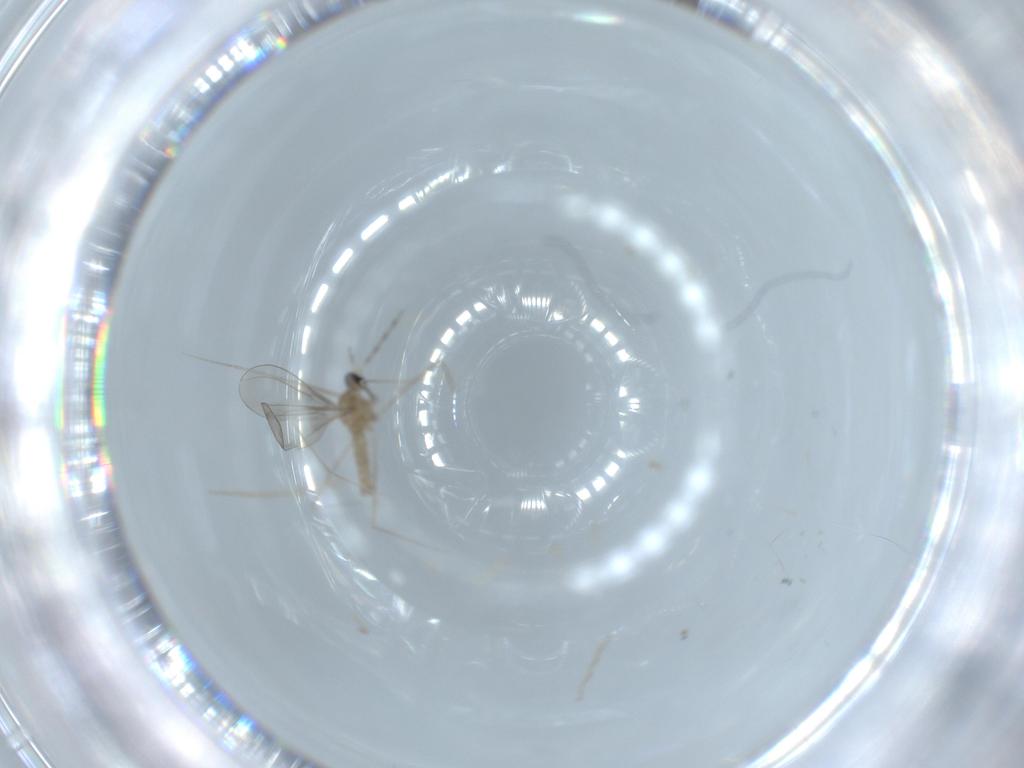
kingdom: Animalia
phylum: Arthropoda
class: Insecta
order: Diptera
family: Cecidomyiidae
